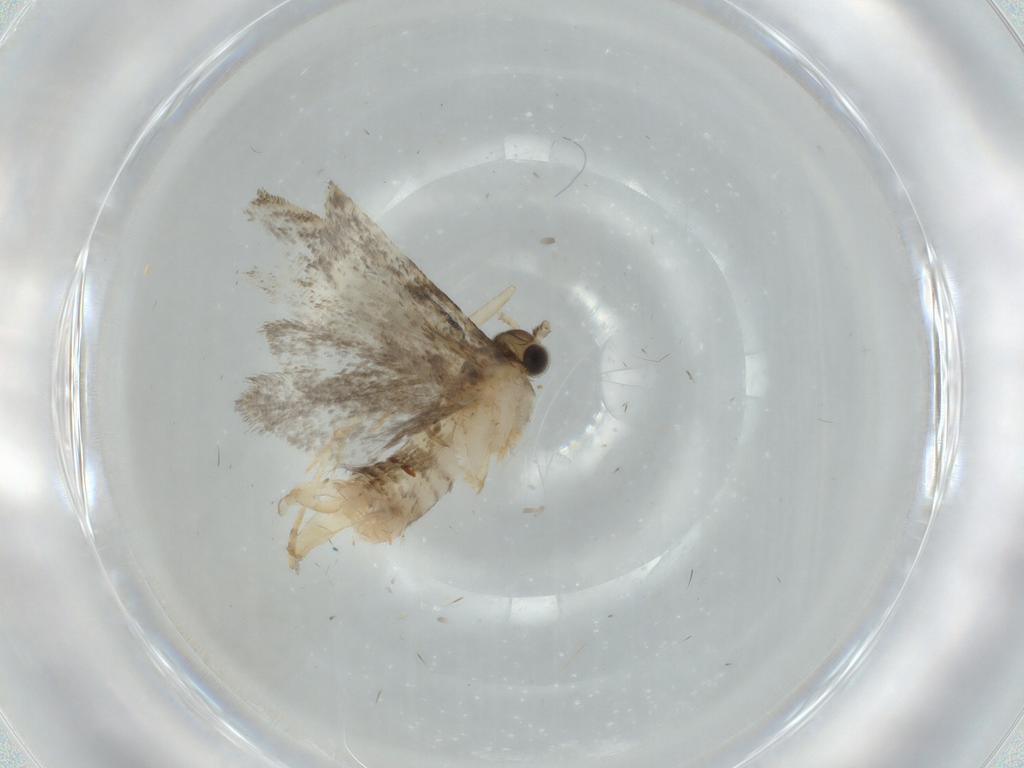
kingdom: Animalia
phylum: Arthropoda
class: Insecta
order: Lepidoptera
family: Tineidae
